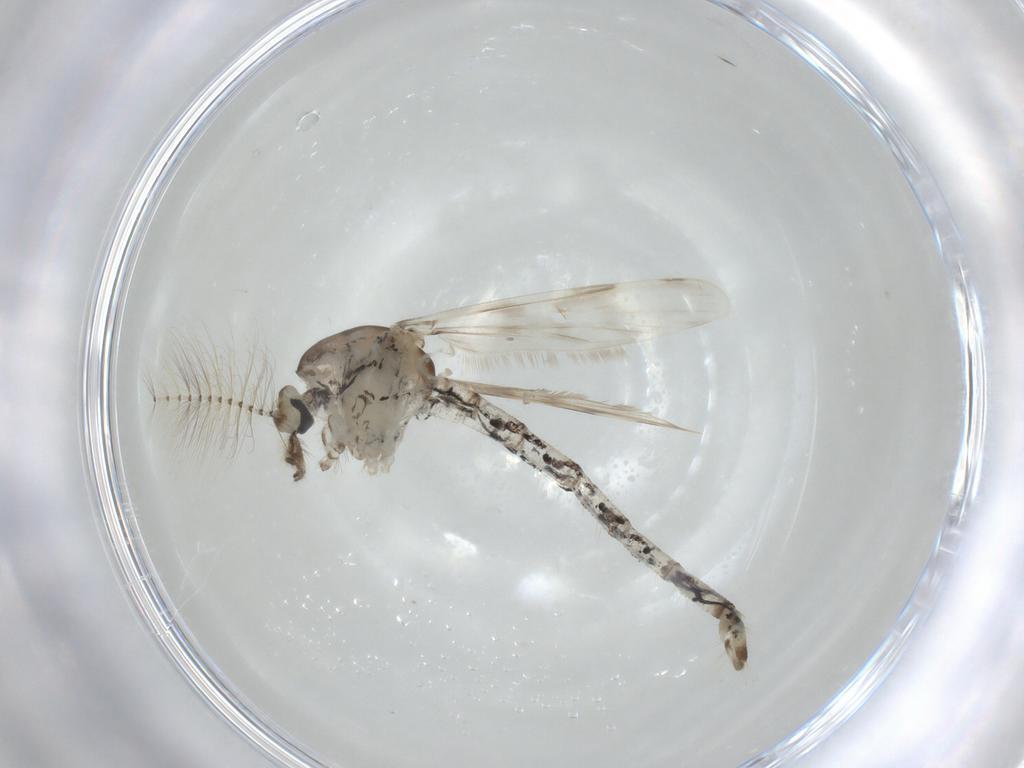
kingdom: Animalia
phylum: Arthropoda
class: Insecta
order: Diptera
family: Chaoboridae
